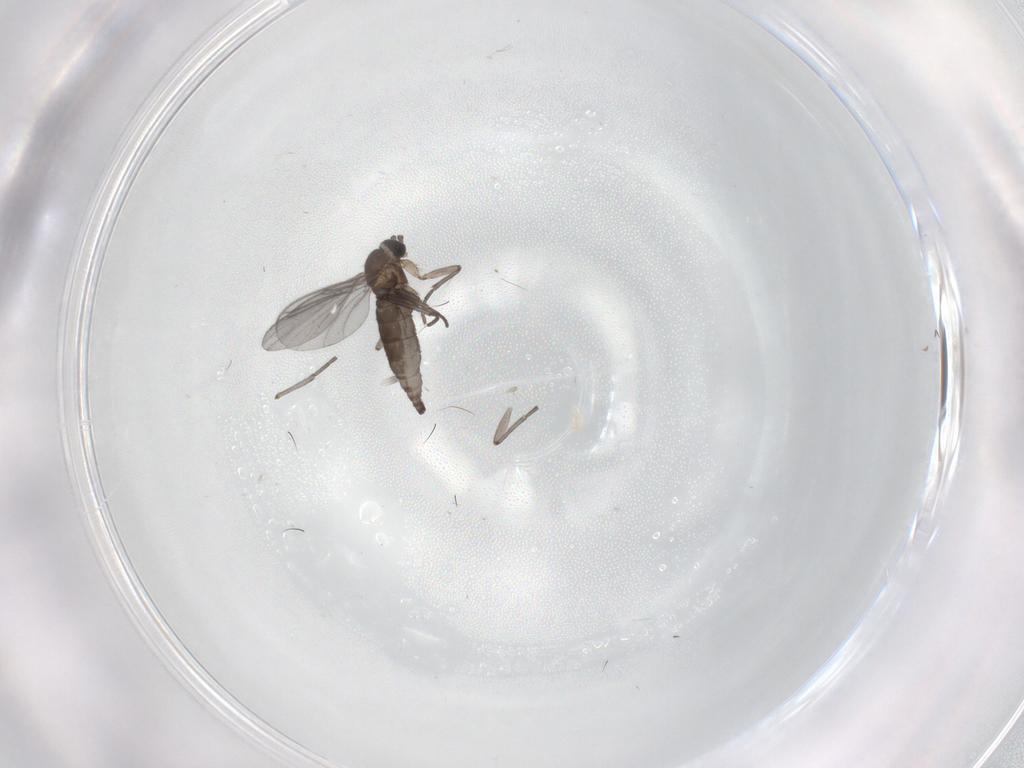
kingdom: Animalia
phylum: Arthropoda
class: Insecta
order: Diptera
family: Sciaridae
